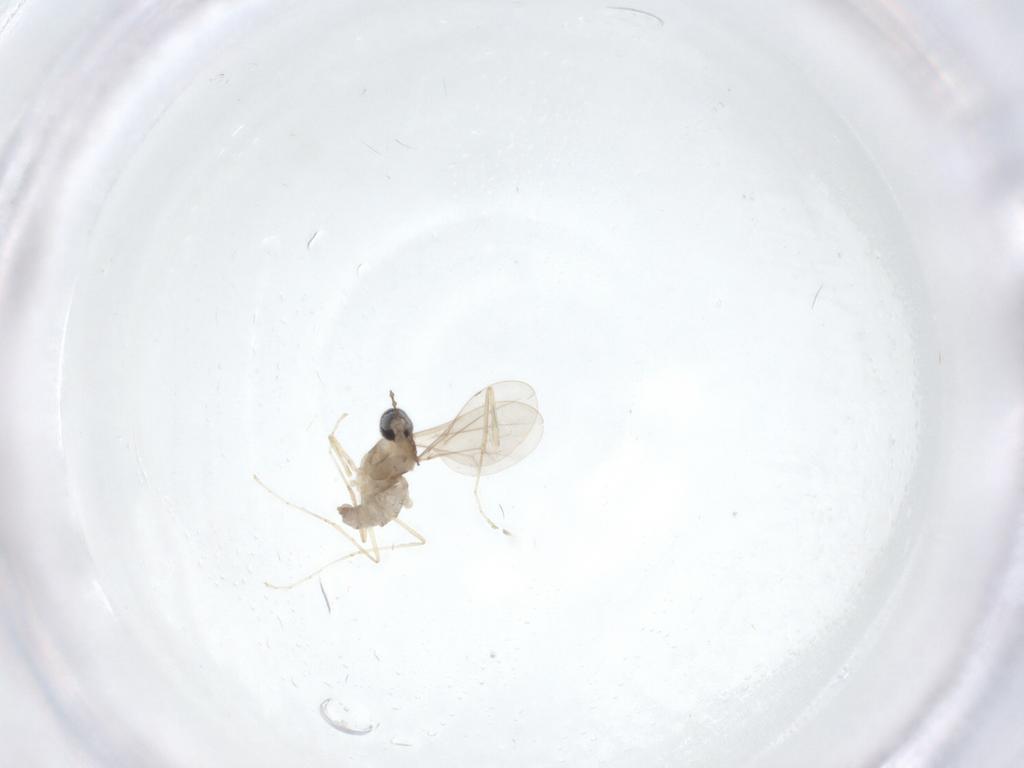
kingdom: Animalia
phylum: Arthropoda
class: Insecta
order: Diptera
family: Cecidomyiidae
